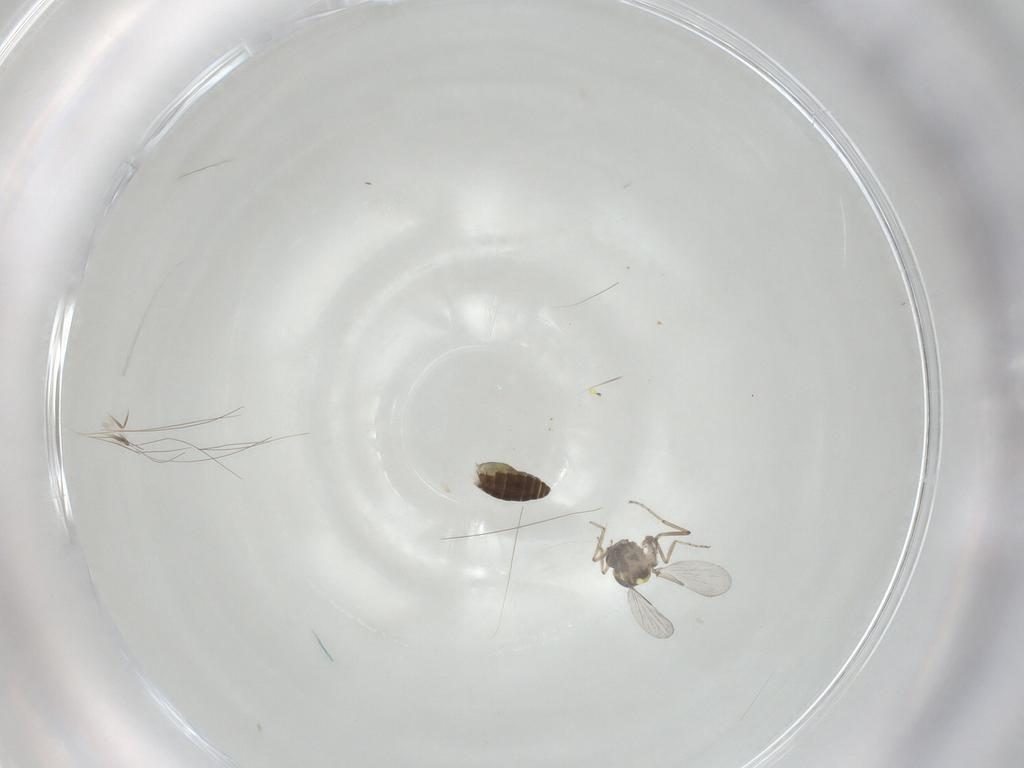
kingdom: Animalia
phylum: Arthropoda
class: Insecta
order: Diptera
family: Ceratopogonidae
